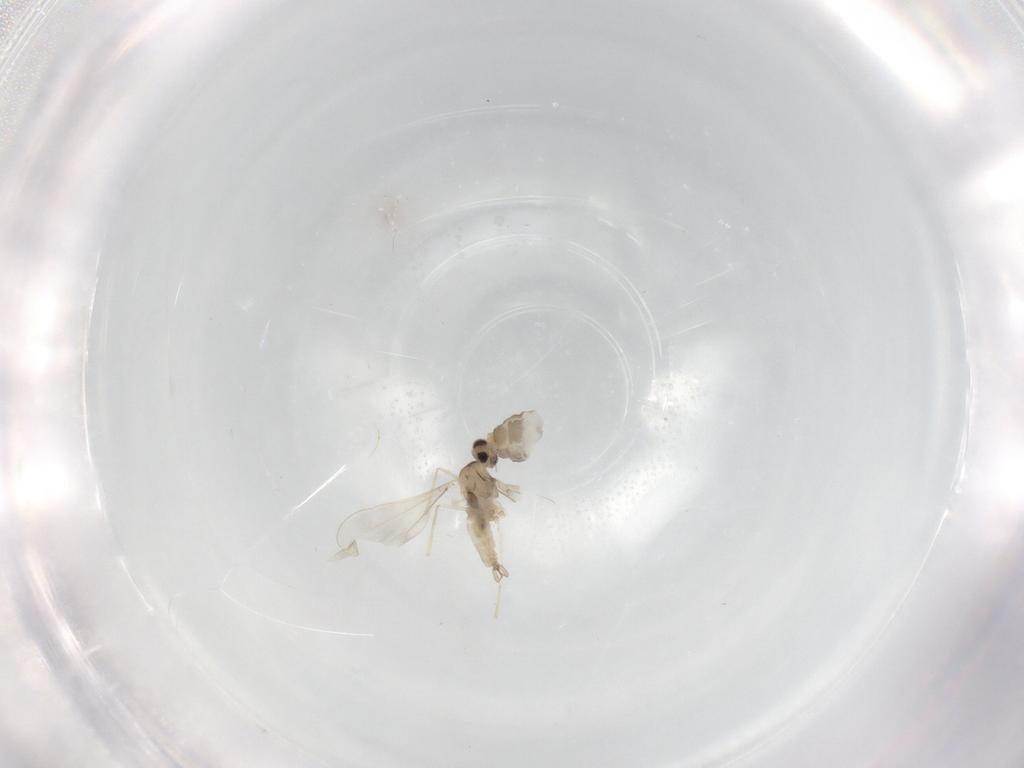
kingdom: Animalia
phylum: Arthropoda
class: Insecta
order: Diptera
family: Cecidomyiidae
